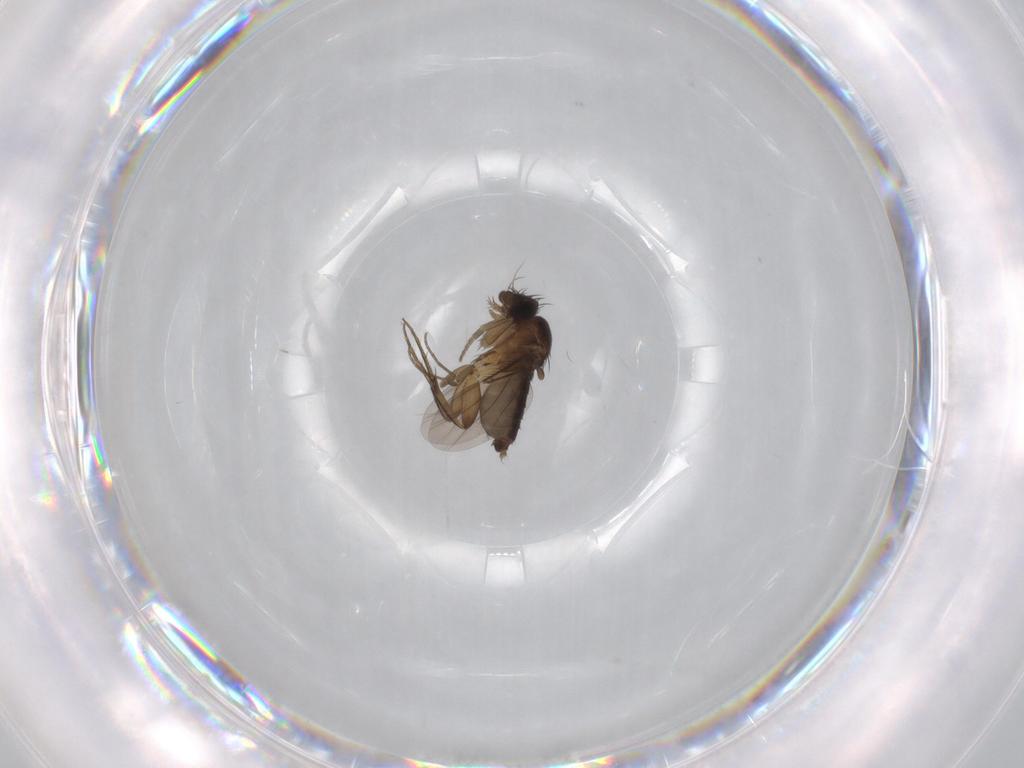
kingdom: Animalia
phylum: Arthropoda
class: Insecta
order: Diptera
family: Phoridae
